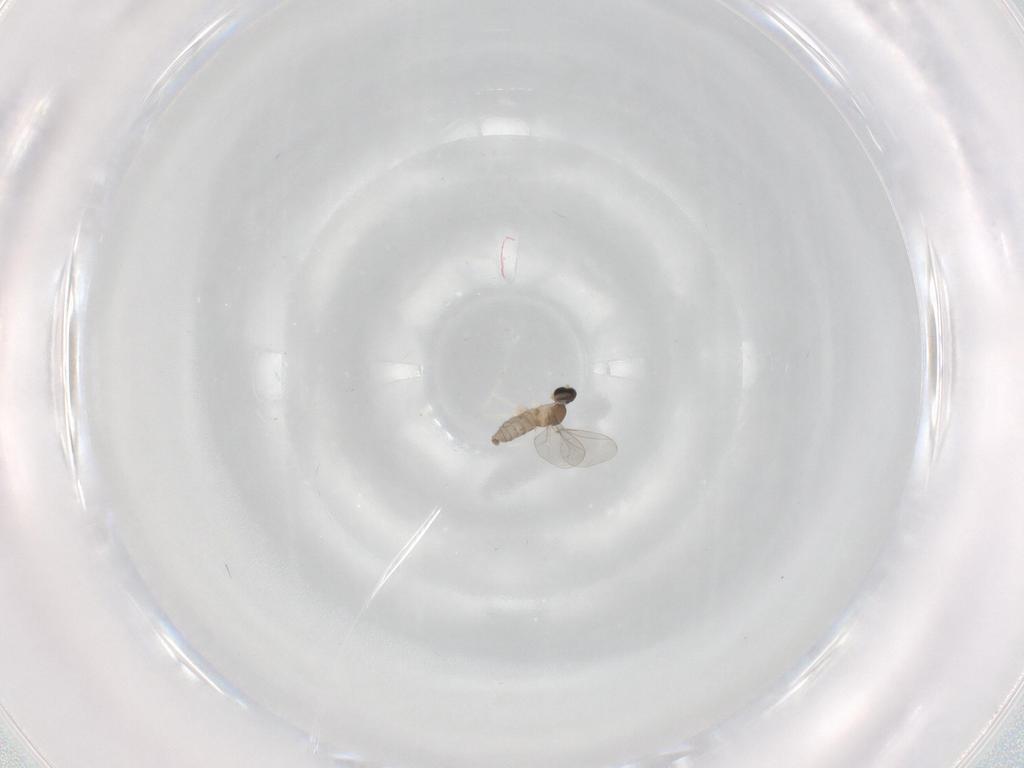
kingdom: Animalia
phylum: Arthropoda
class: Insecta
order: Diptera
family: Cecidomyiidae
